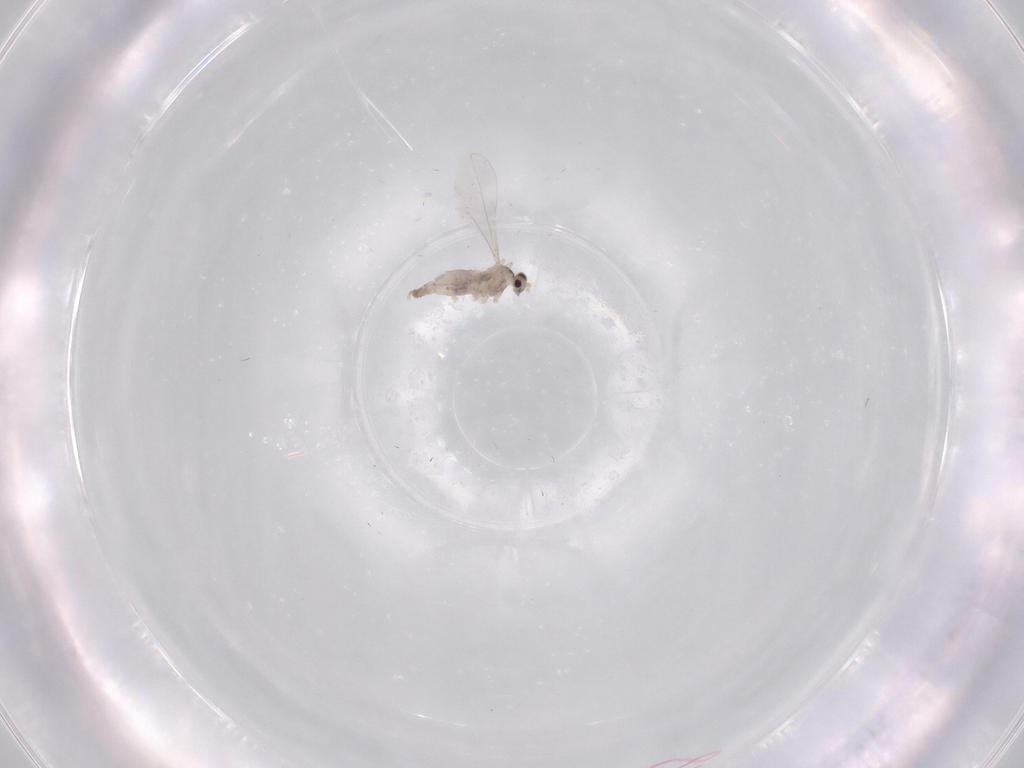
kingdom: Animalia
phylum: Arthropoda
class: Insecta
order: Diptera
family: Cecidomyiidae
